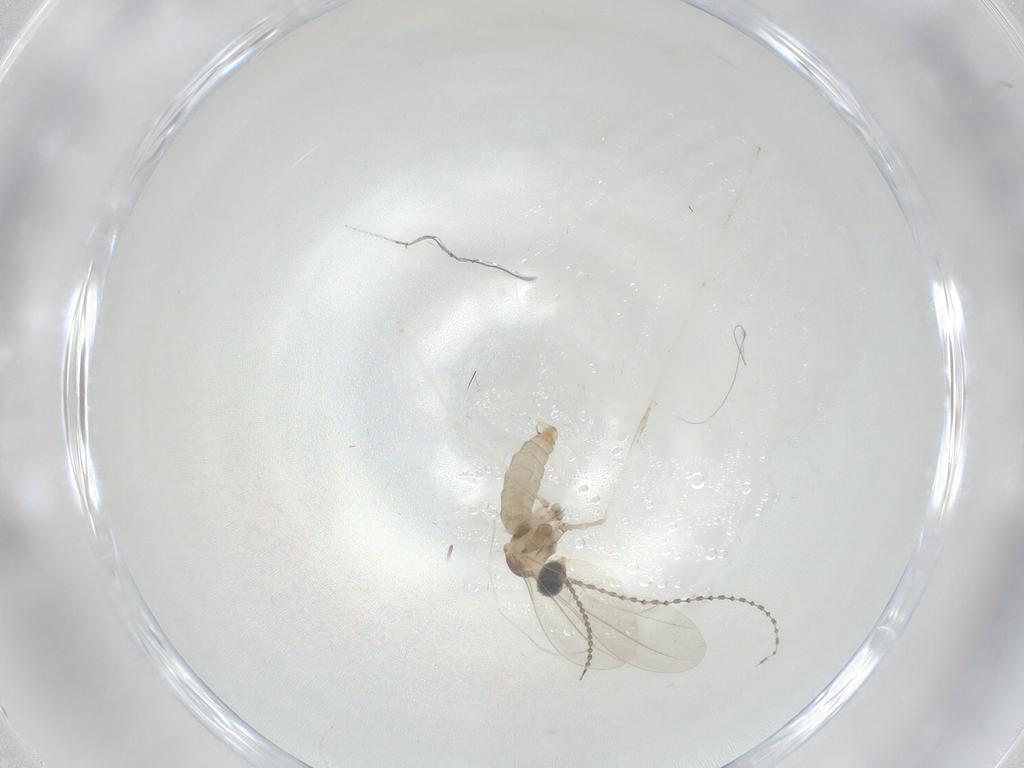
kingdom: Animalia
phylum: Arthropoda
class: Insecta
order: Diptera
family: Cecidomyiidae
